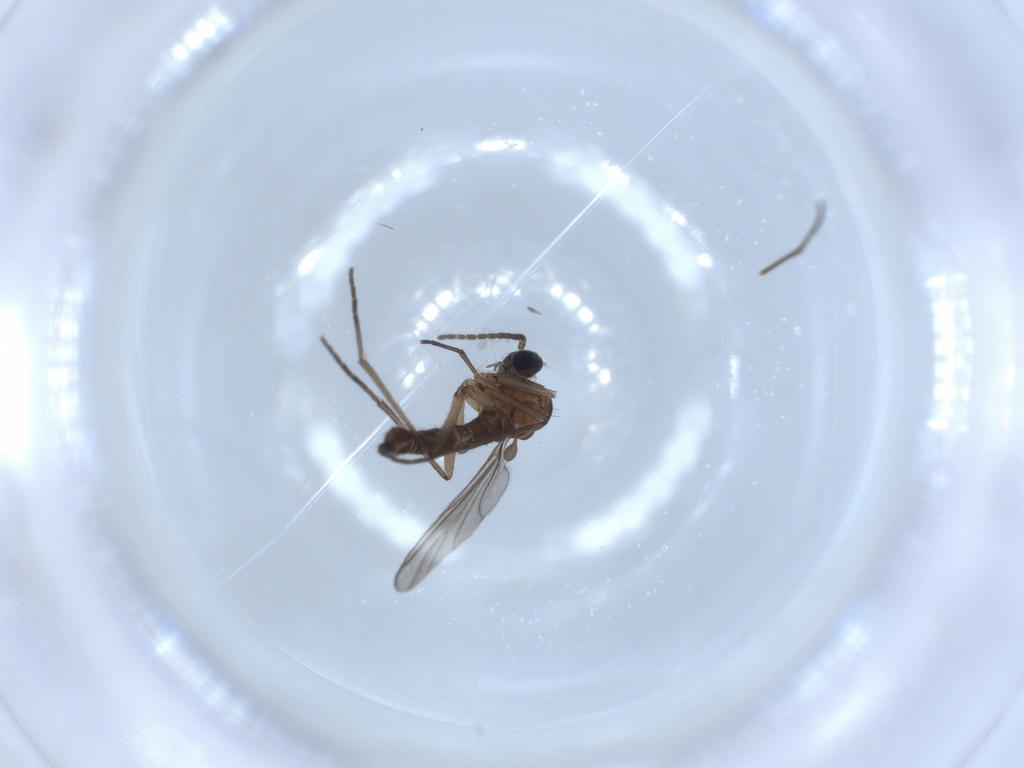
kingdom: Animalia
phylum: Arthropoda
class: Insecta
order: Diptera
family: Sciaridae
